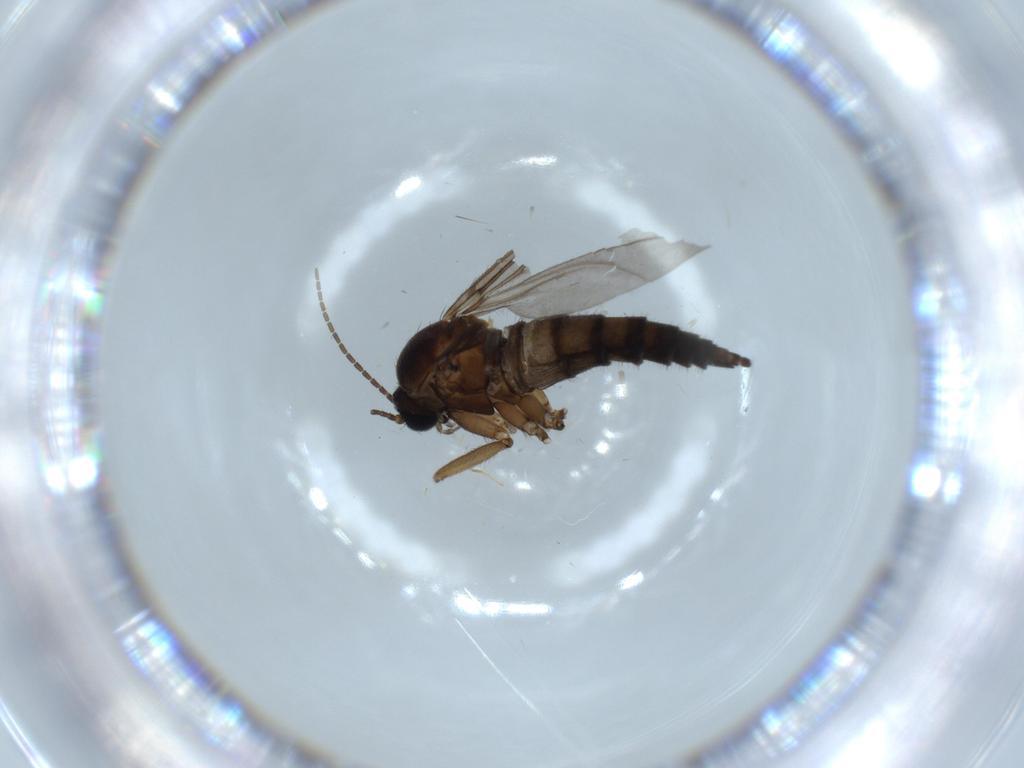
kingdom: Animalia
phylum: Arthropoda
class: Insecta
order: Diptera
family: Sciaridae
